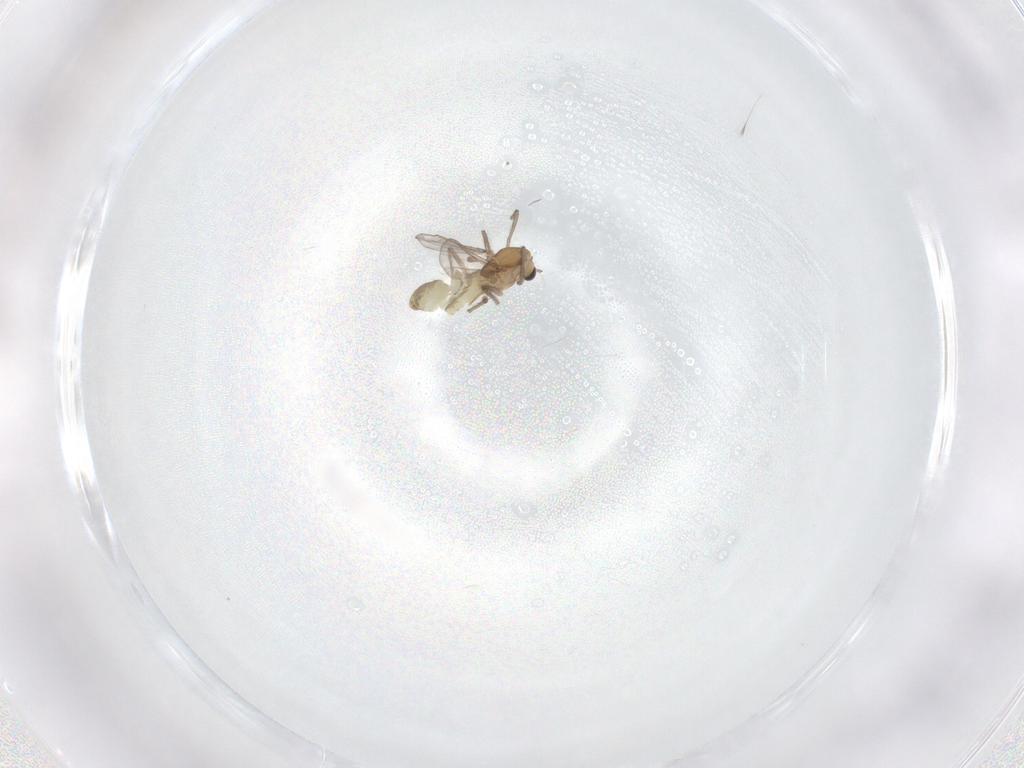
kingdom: Animalia
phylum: Arthropoda
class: Insecta
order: Diptera
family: Chironomidae
